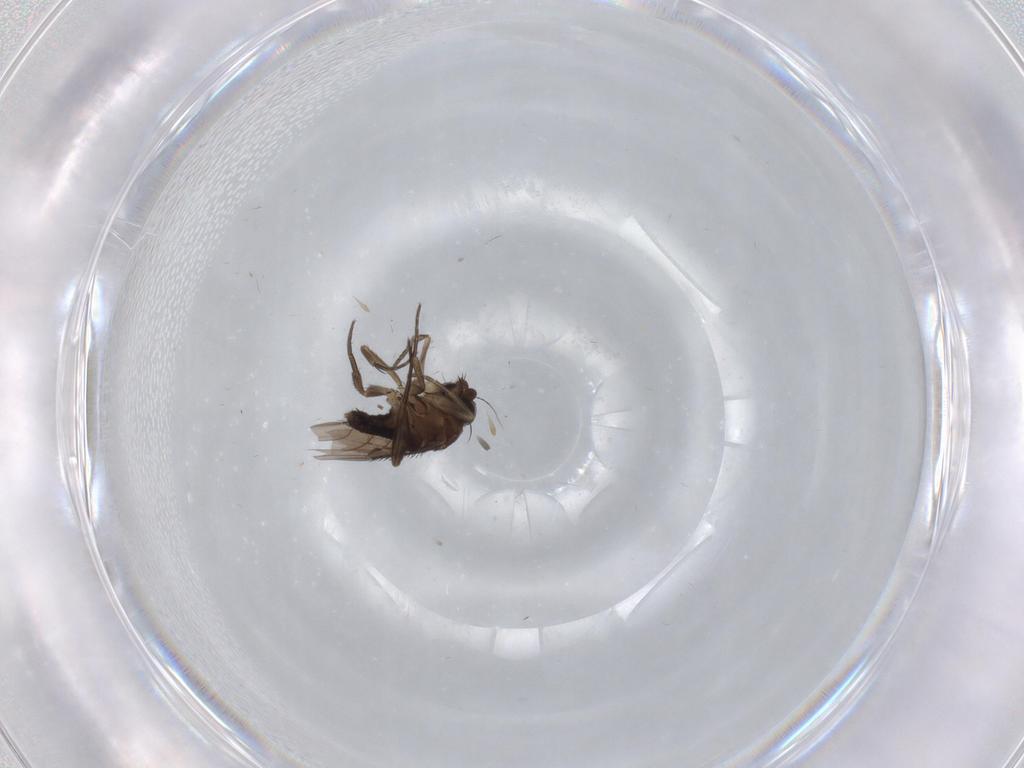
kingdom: Animalia
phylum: Arthropoda
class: Insecta
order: Diptera
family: Phoridae
